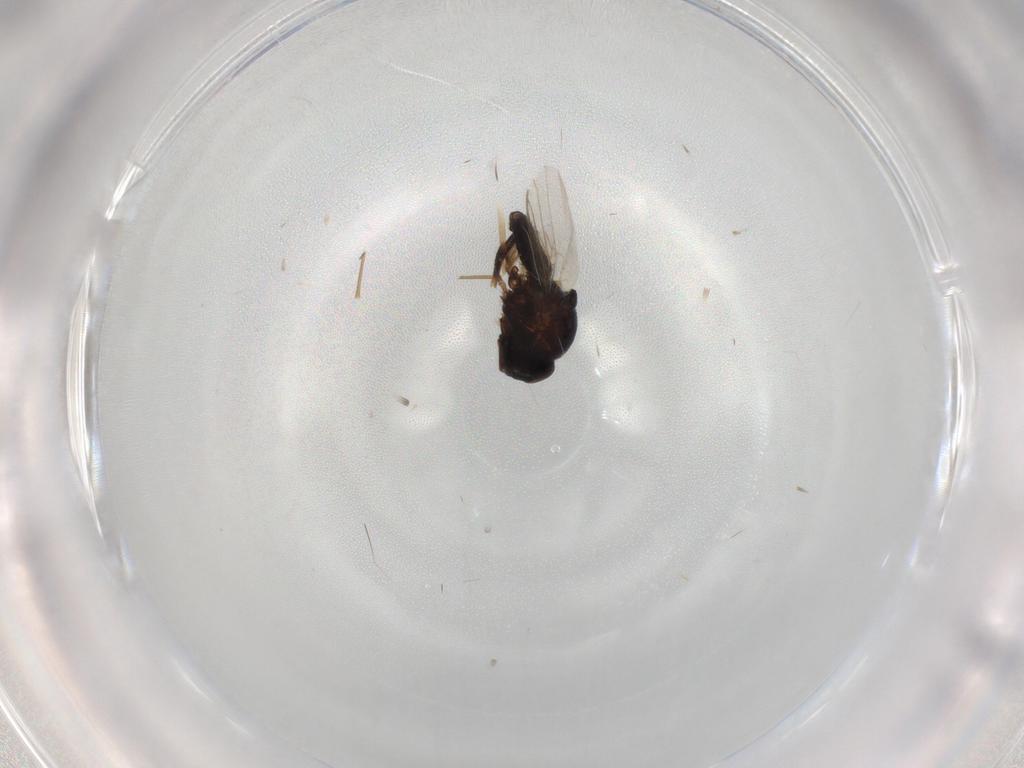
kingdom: Animalia
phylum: Arthropoda
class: Insecta
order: Diptera
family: Chloropidae
